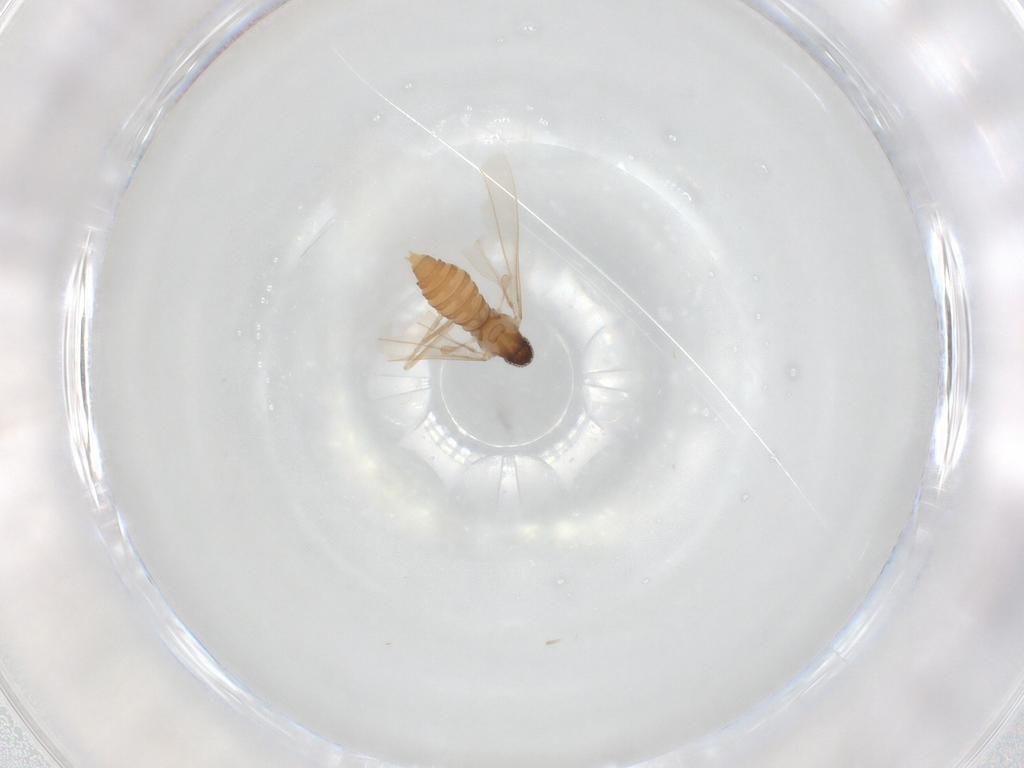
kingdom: Animalia
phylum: Arthropoda
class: Insecta
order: Diptera
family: Cecidomyiidae
